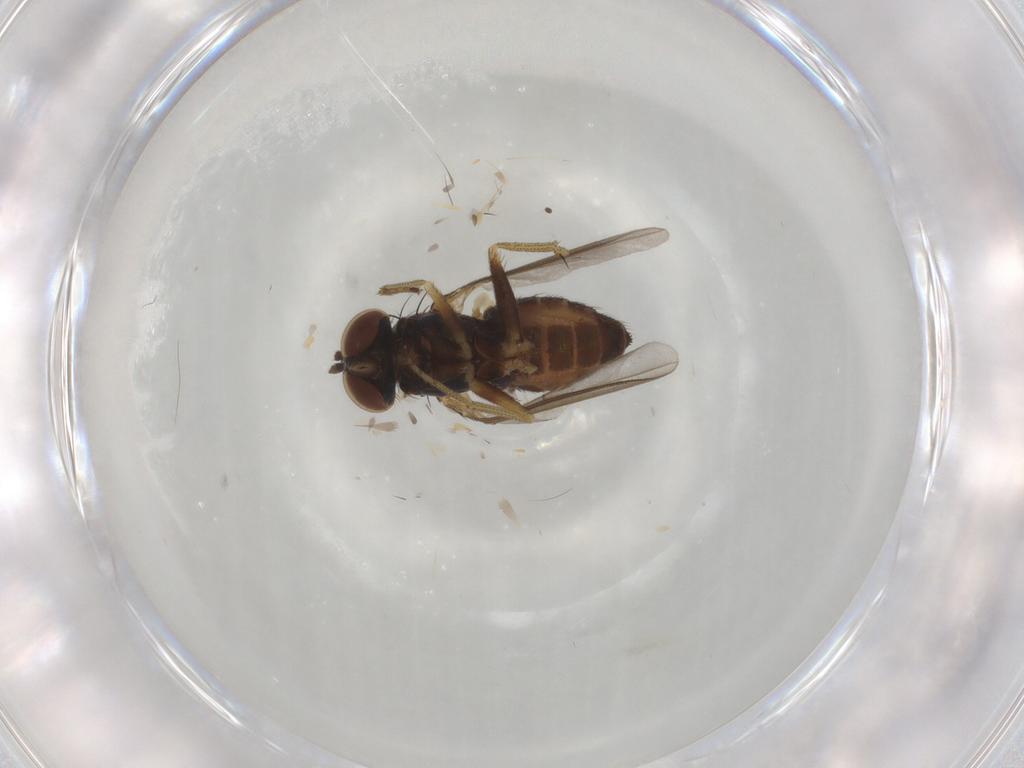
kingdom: Animalia
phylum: Arthropoda
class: Insecta
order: Diptera
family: Dolichopodidae
